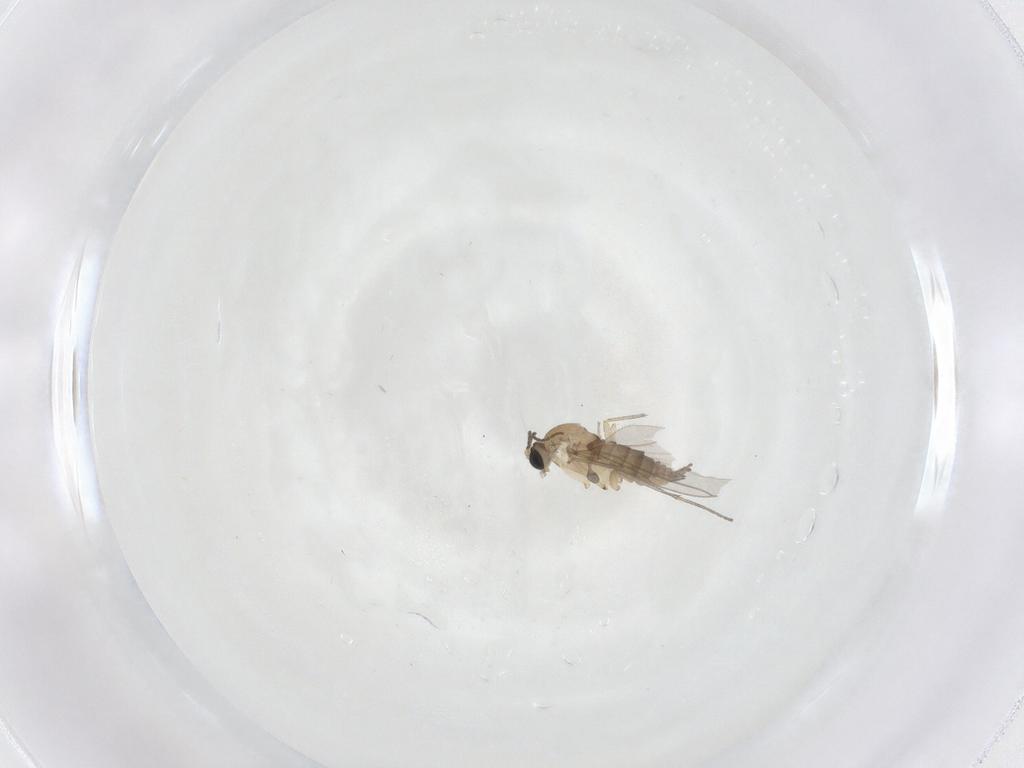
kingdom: Animalia
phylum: Arthropoda
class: Insecta
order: Diptera
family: Sciaridae
